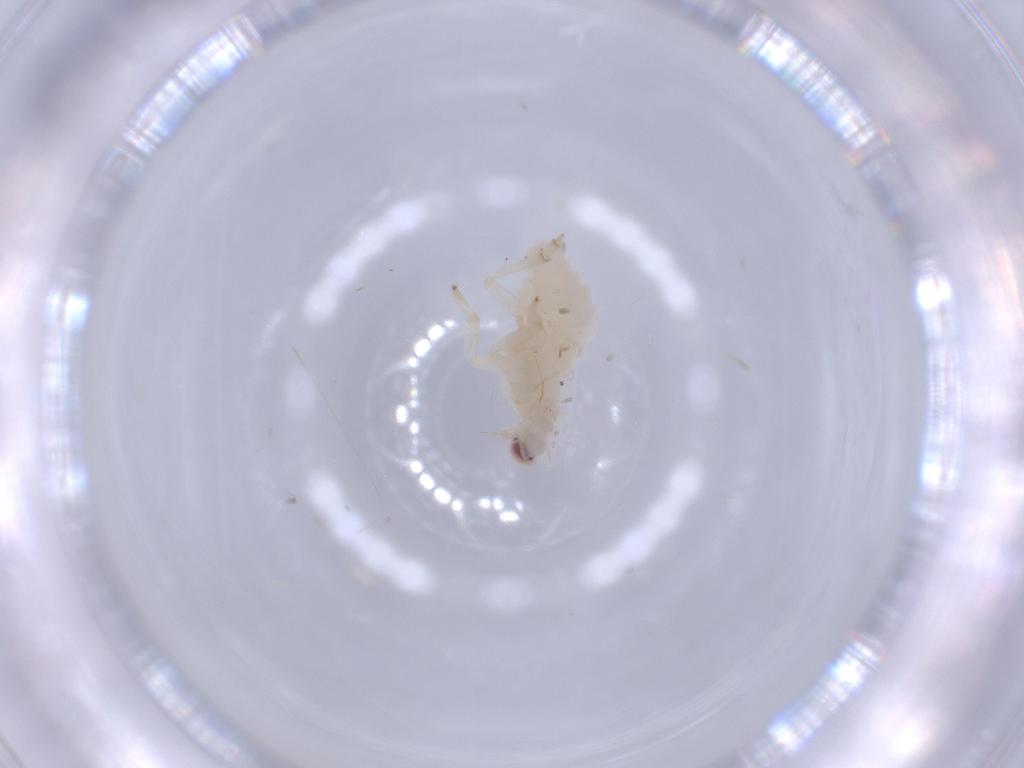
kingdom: Animalia
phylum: Arthropoda
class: Insecta
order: Hemiptera
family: Nogodinidae
